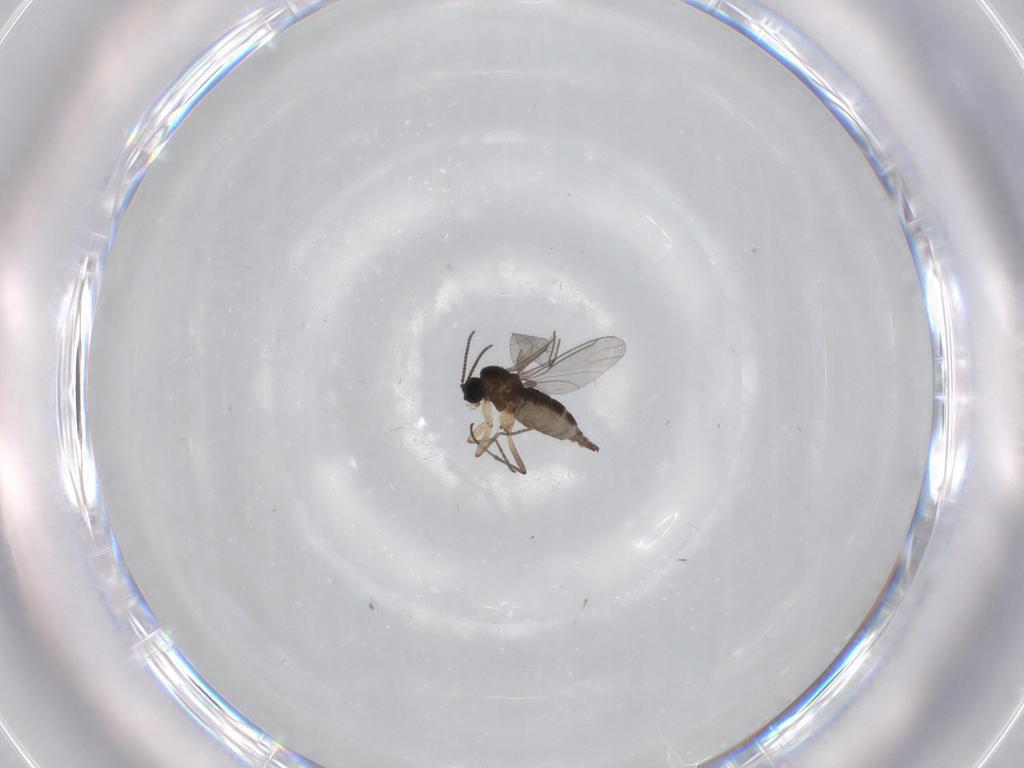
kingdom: Animalia
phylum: Arthropoda
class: Insecta
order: Diptera
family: Sciaridae
